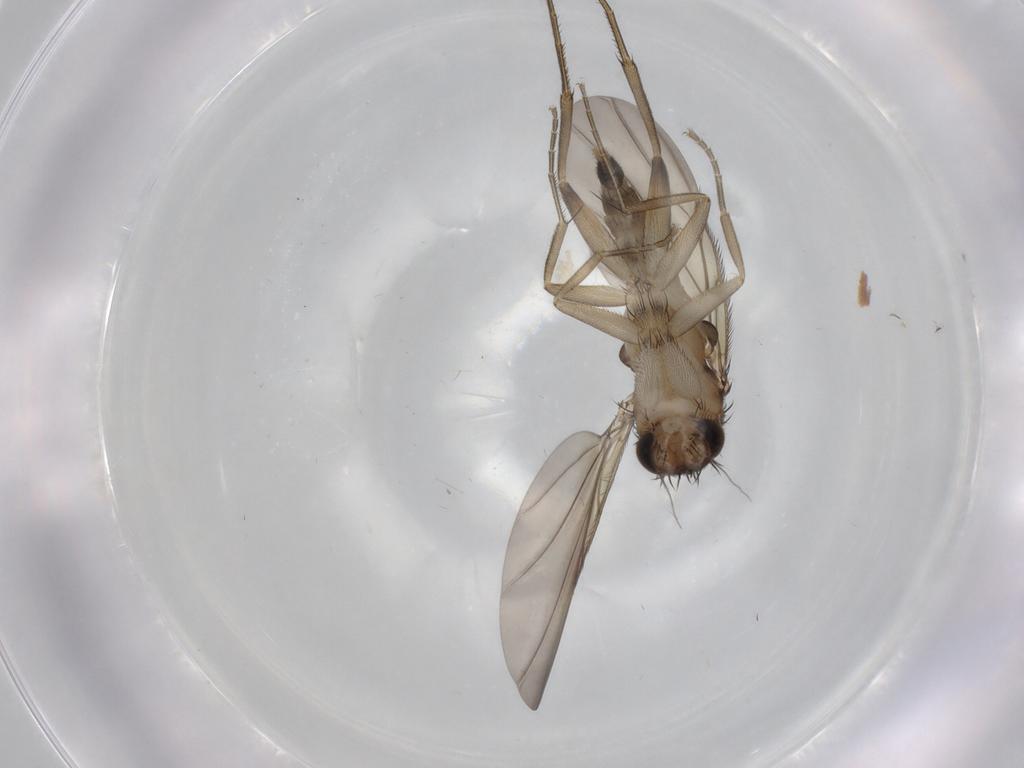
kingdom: Animalia
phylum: Arthropoda
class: Insecta
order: Diptera
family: Phoridae
